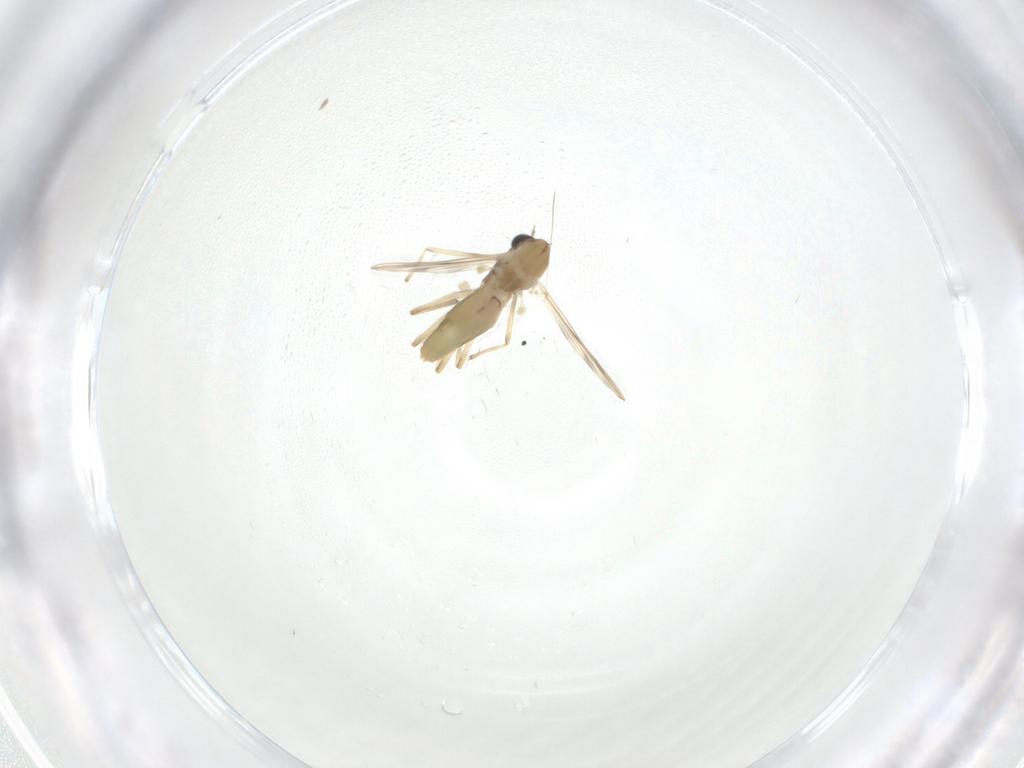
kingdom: Animalia
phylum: Arthropoda
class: Insecta
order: Diptera
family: Chironomidae
